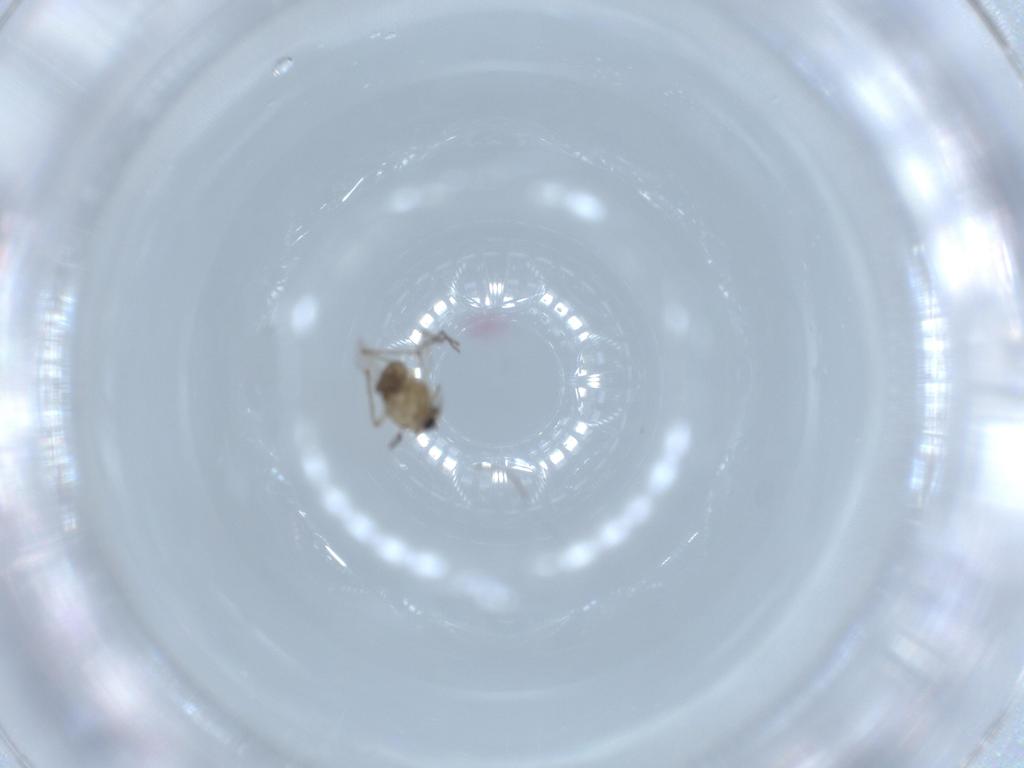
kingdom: Animalia
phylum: Arthropoda
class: Insecta
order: Diptera
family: Chironomidae
